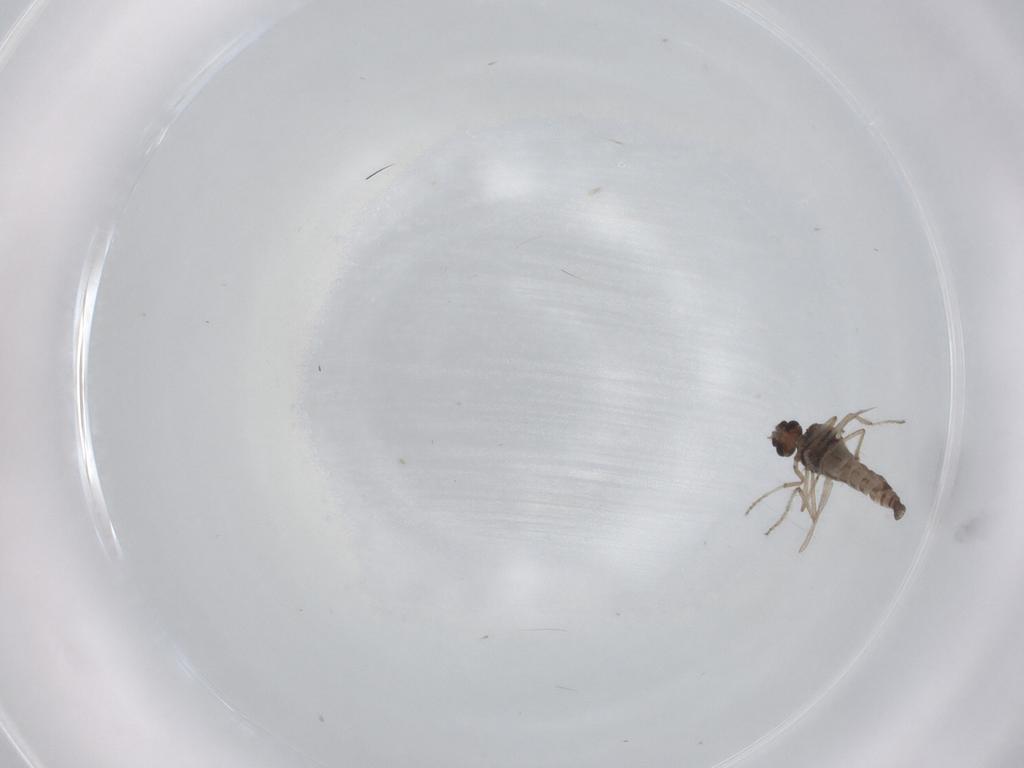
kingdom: Animalia
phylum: Arthropoda
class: Insecta
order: Diptera
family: Ceratopogonidae
